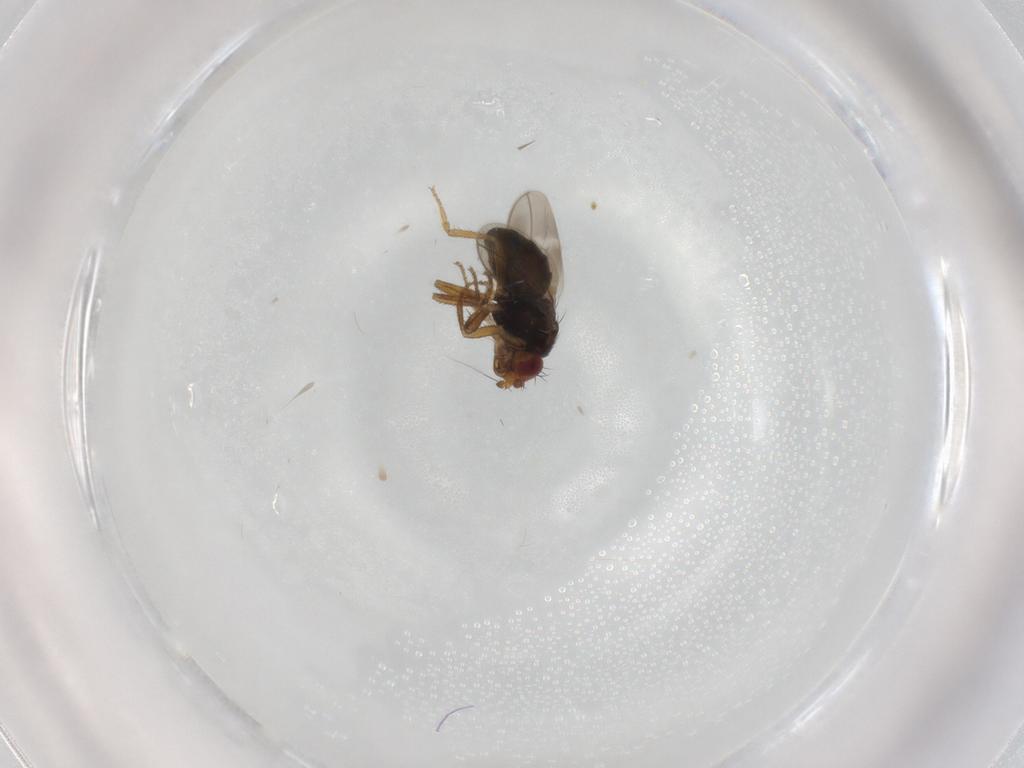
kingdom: Animalia
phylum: Arthropoda
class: Insecta
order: Diptera
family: Sphaeroceridae
